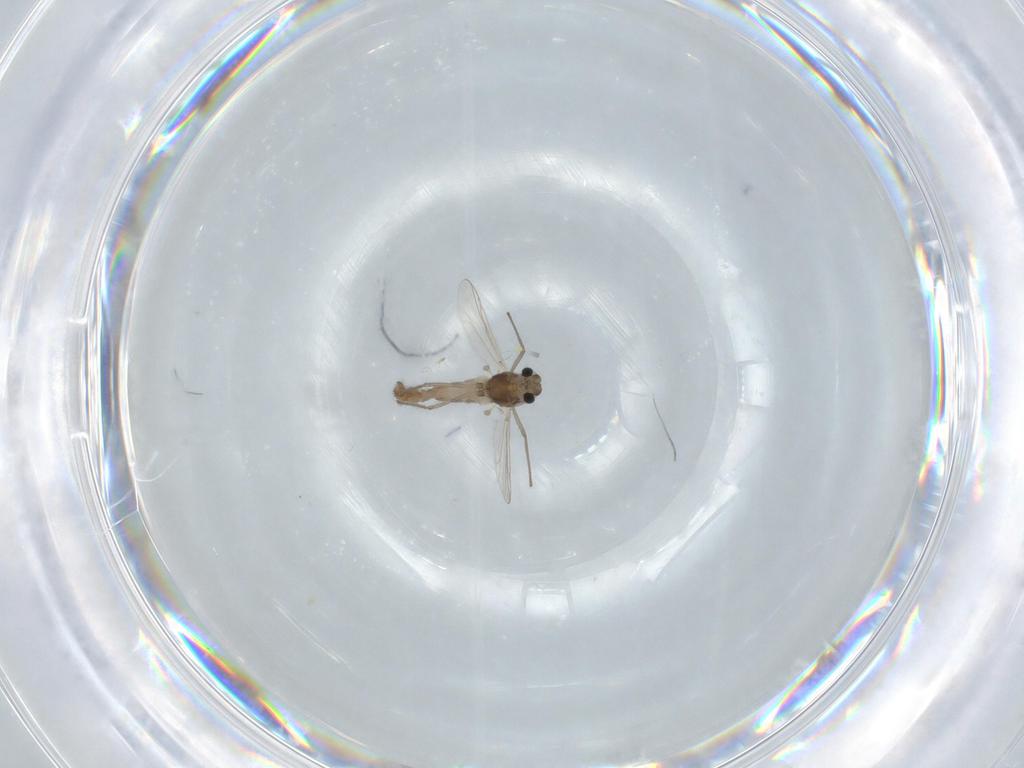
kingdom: Animalia
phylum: Arthropoda
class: Insecta
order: Diptera
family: Chironomidae
